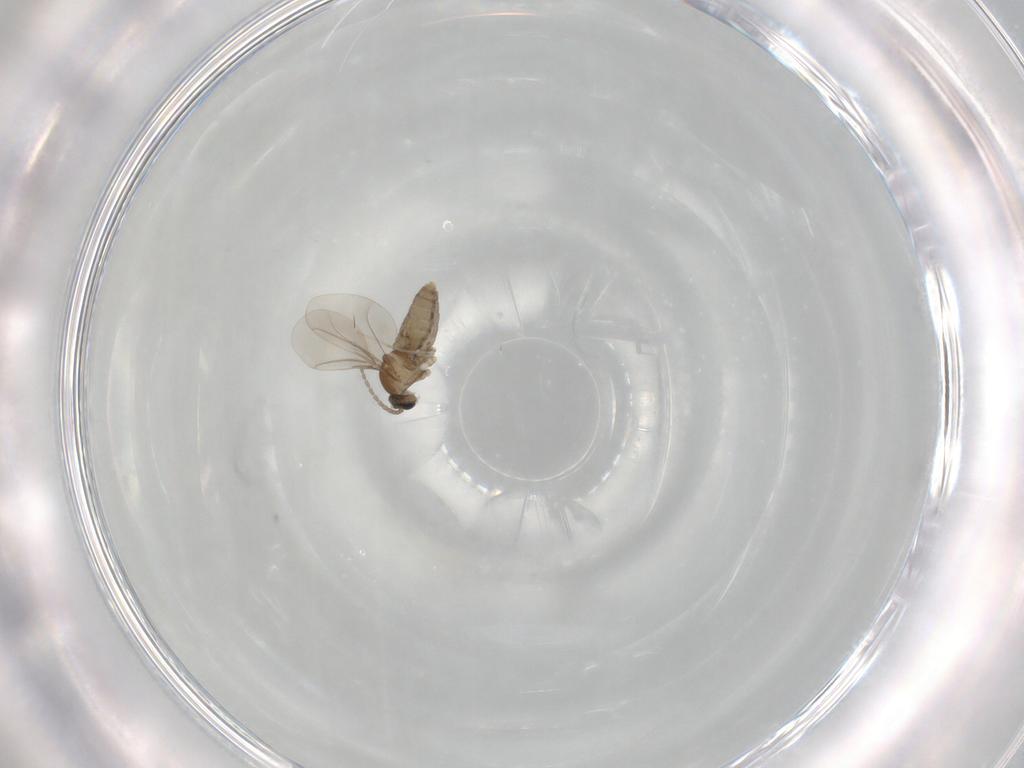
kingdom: Animalia
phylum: Arthropoda
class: Insecta
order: Diptera
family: Cecidomyiidae
